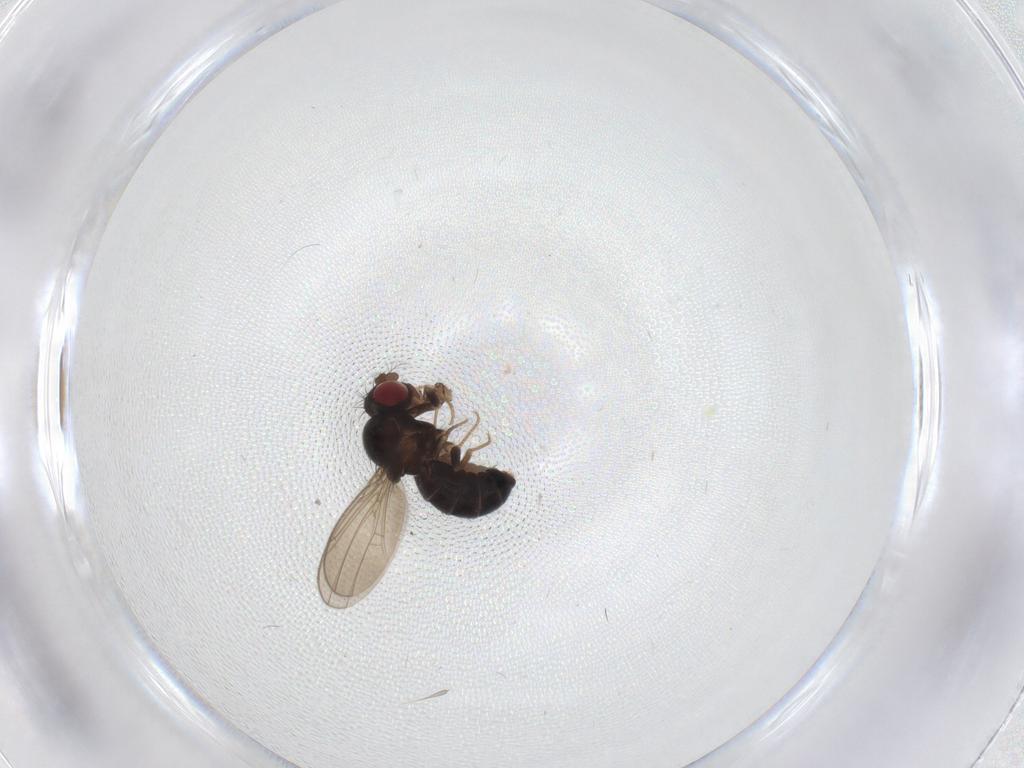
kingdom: Animalia
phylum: Arthropoda
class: Insecta
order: Diptera
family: Drosophilidae
